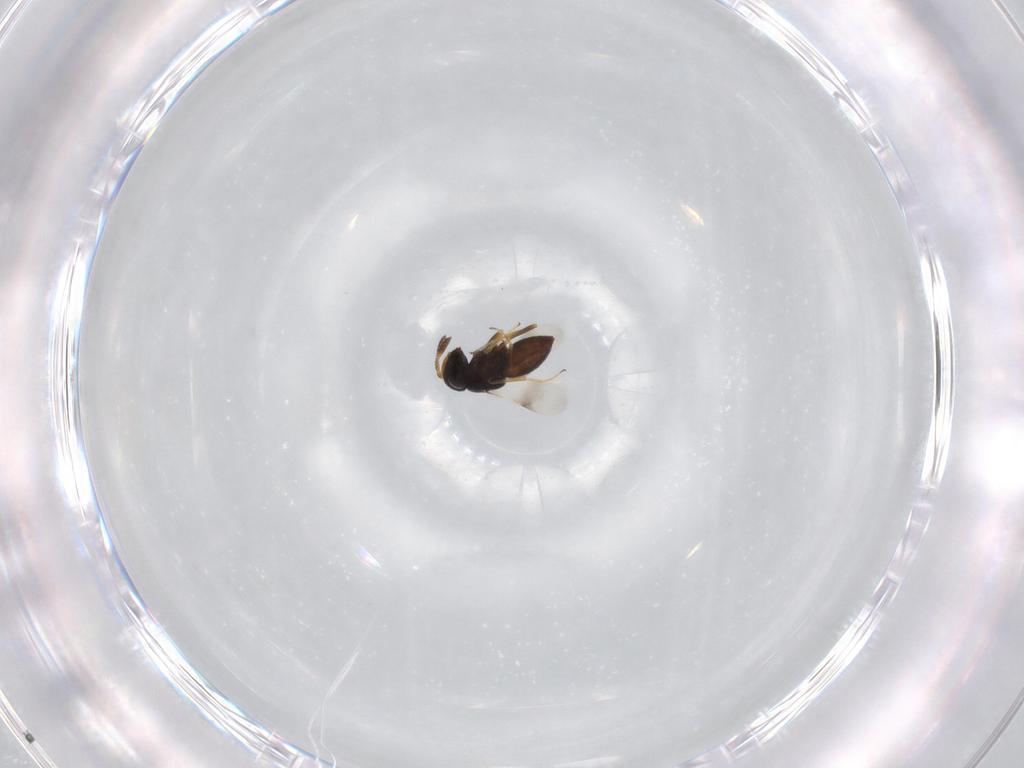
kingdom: Animalia
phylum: Arthropoda
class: Insecta
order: Hymenoptera
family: Scelionidae
